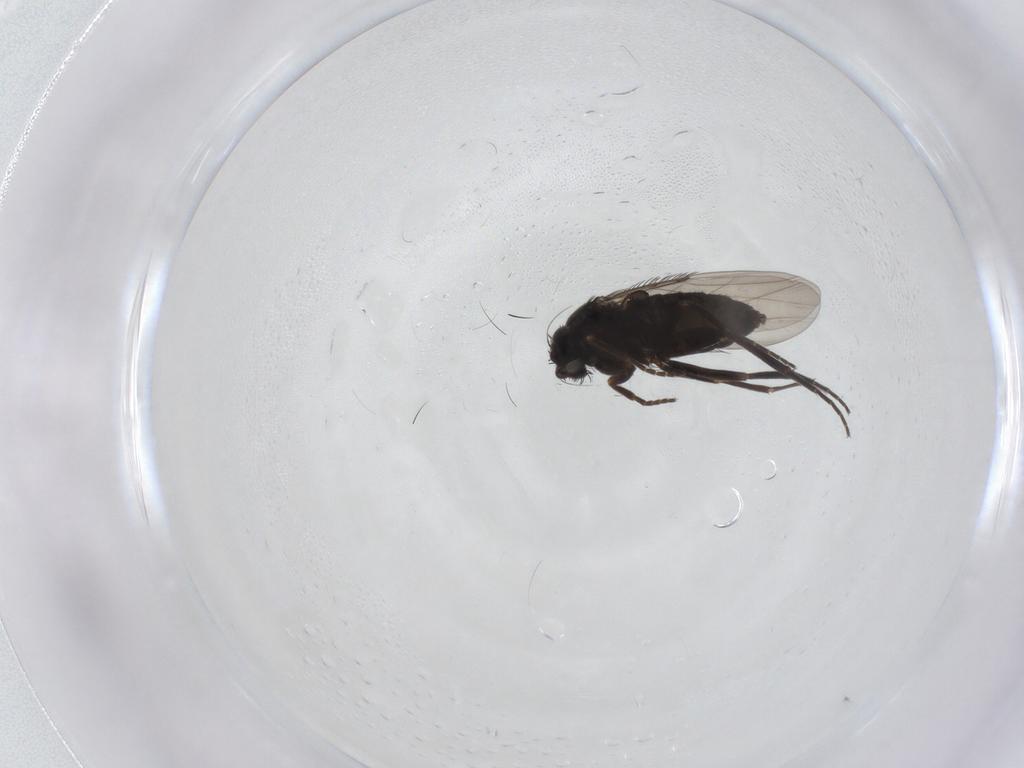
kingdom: Animalia
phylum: Arthropoda
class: Insecta
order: Diptera
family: Phoridae
